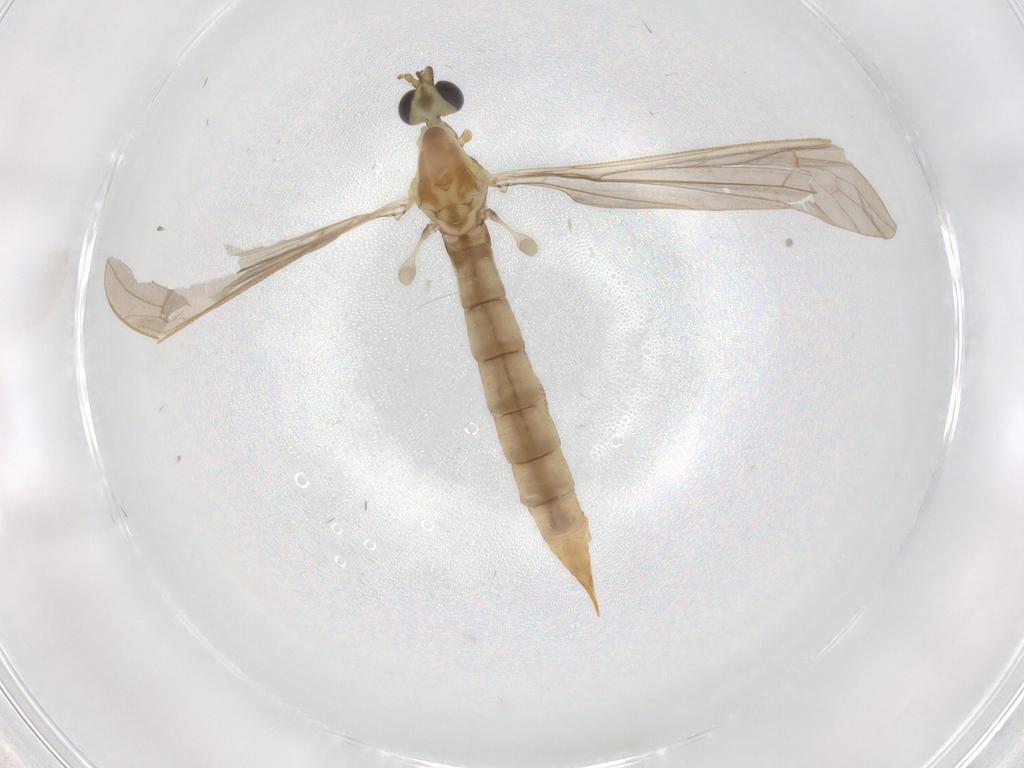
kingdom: Animalia
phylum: Arthropoda
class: Insecta
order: Diptera
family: Limoniidae
